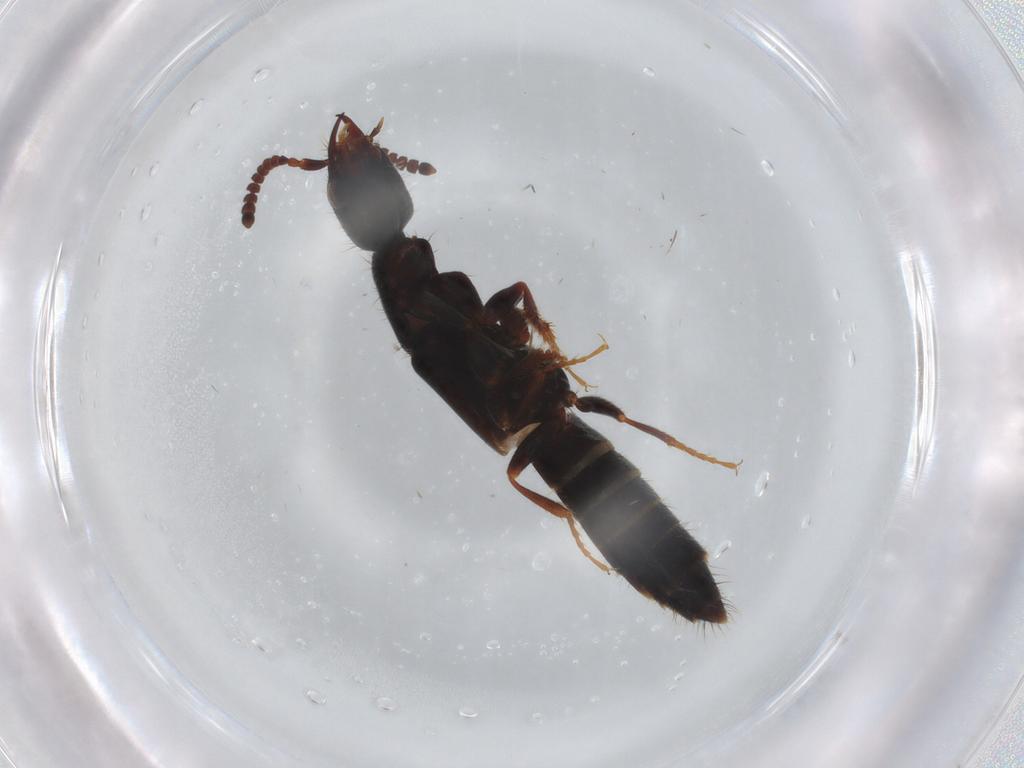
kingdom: Animalia
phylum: Arthropoda
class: Insecta
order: Coleoptera
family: Staphylinidae
